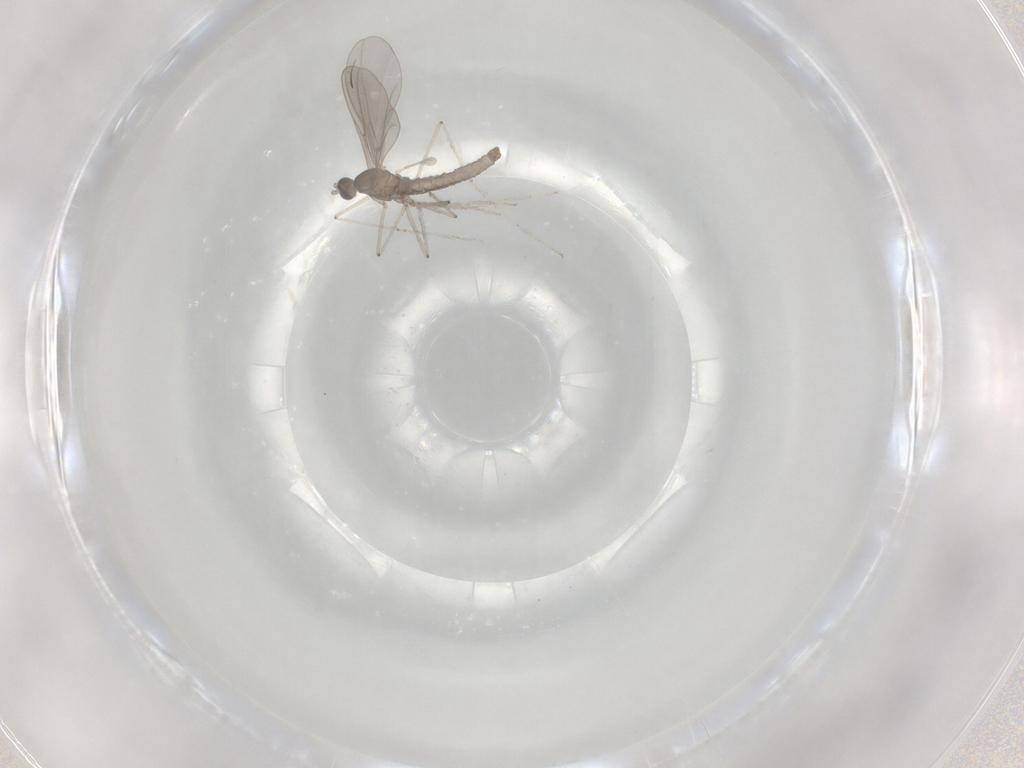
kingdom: Animalia
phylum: Arthropoda
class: Insecta
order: Diptera
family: Cecidomyiidae
